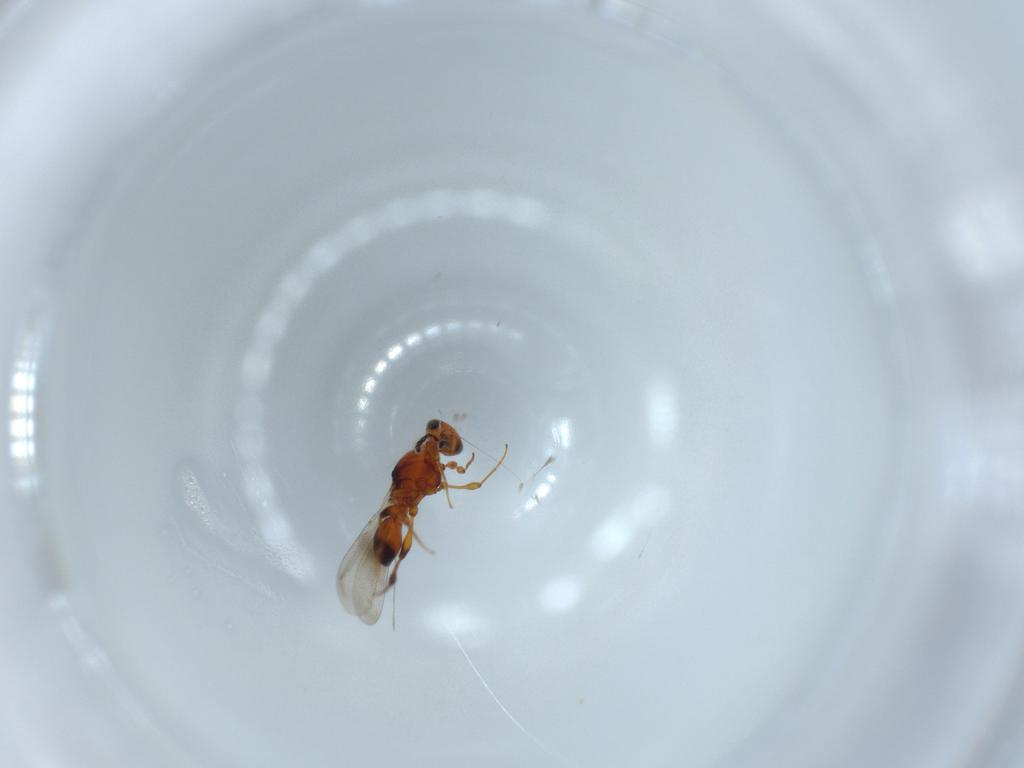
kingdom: Animalia
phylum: Arthropoda
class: Insecta
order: Hymenoptera
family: Platygastridae
